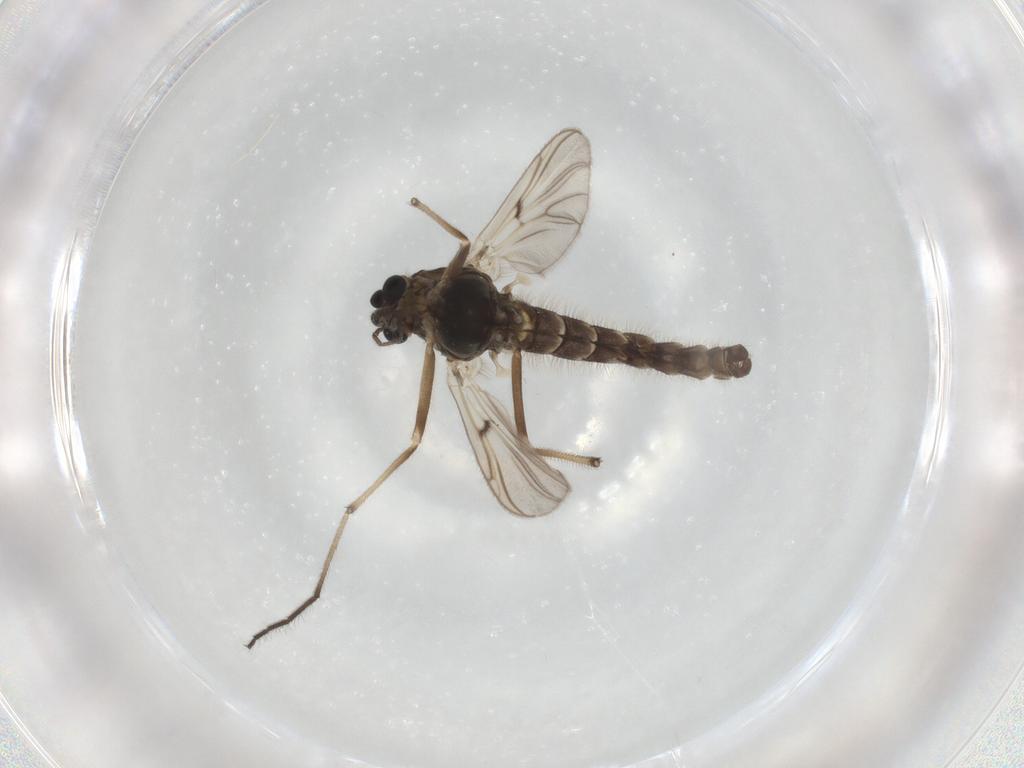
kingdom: Animalia
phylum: Arthropoda
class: Insecta
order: Diptera
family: Chironomidae
